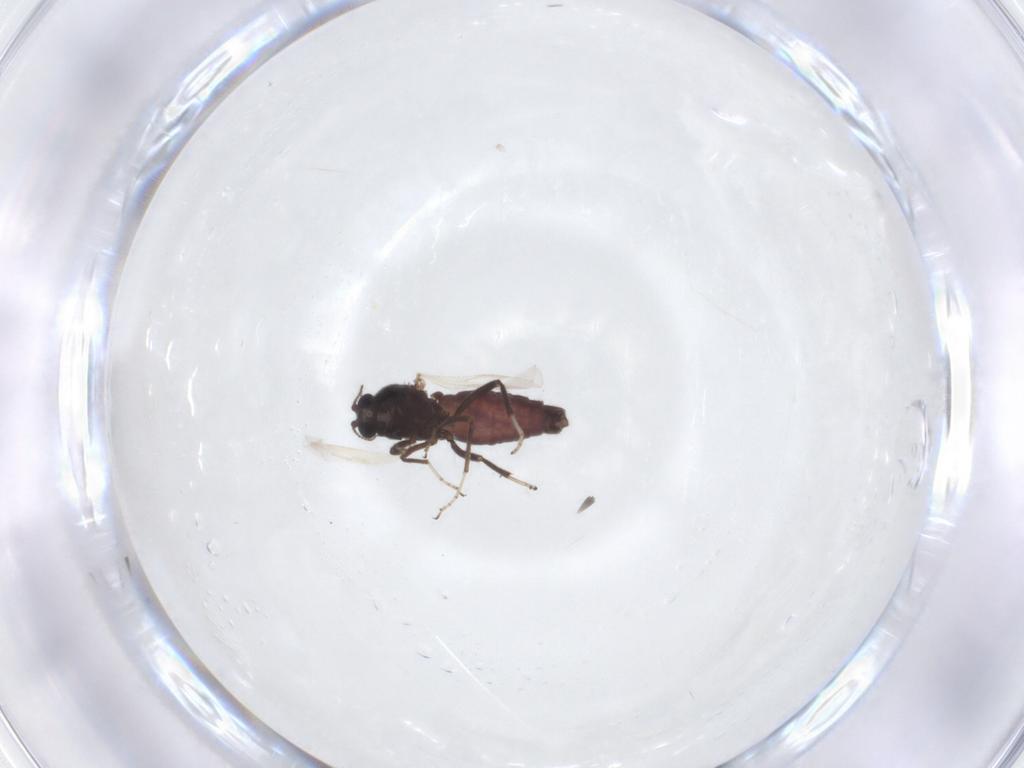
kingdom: Animalia
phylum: Arthropoda
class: Insecta
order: Diptera
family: Ceratopogonidae
